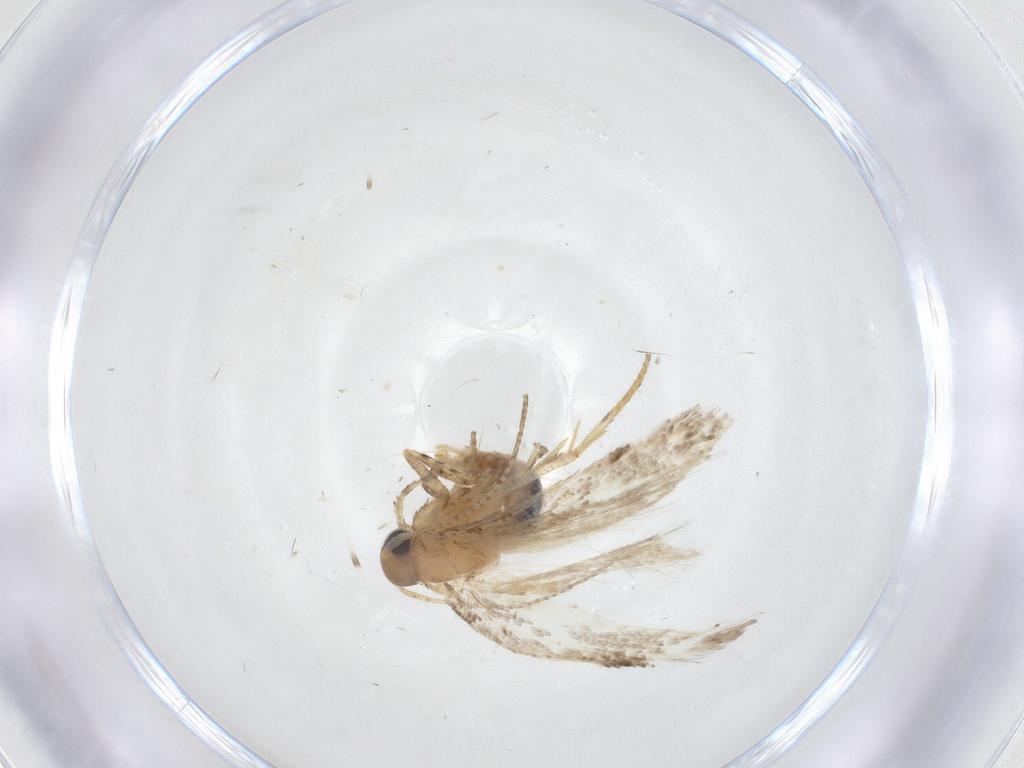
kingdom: Animalia
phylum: Arthropoda
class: Insecta
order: Lepidoptera
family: Gelechiidae
